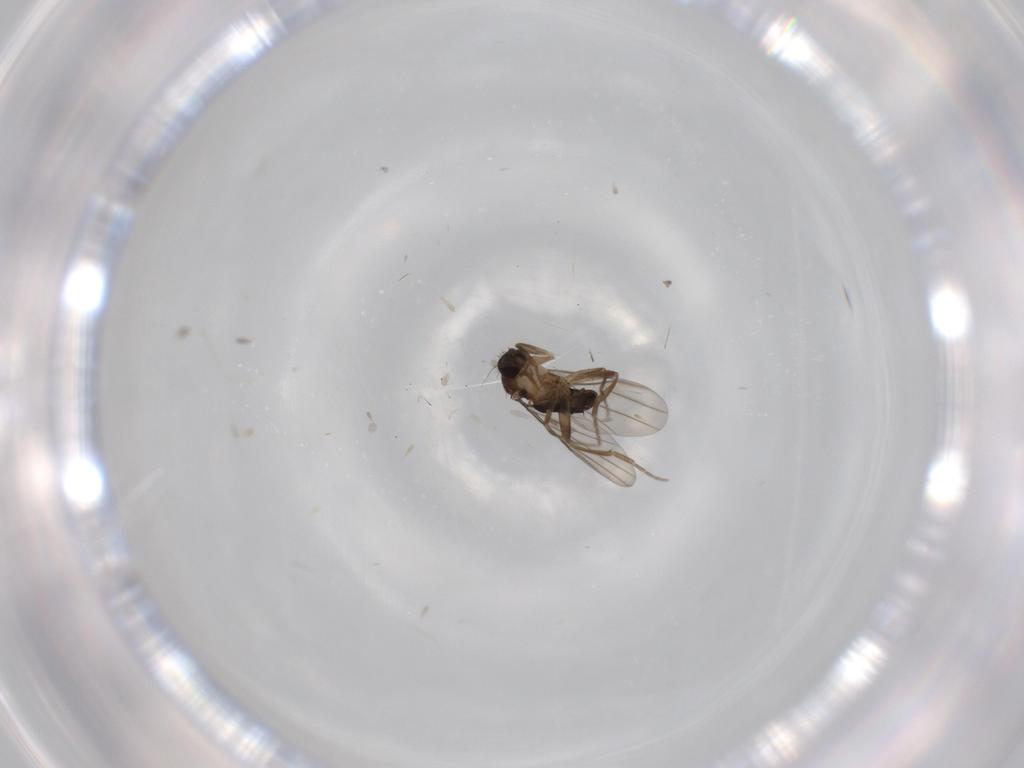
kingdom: Animalia
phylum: Arthropoda
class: Insecta
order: Diptera
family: Phoridae
